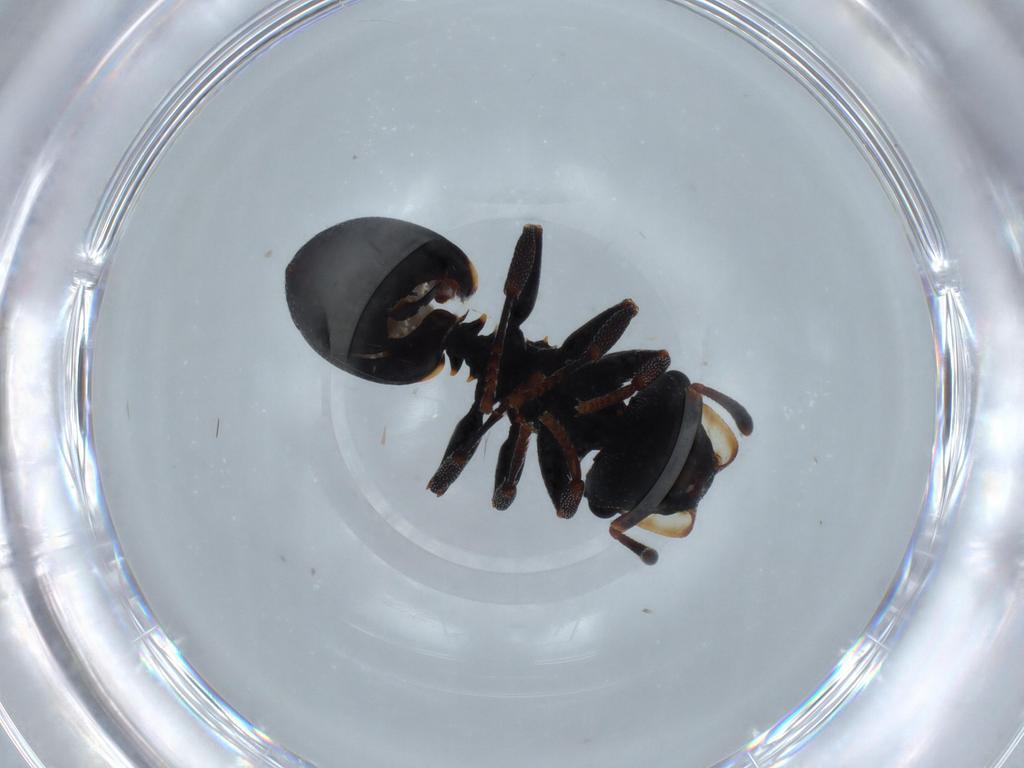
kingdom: Animalia
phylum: Arthropoda
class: Insecta
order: Hymenoptera
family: Formicidae
